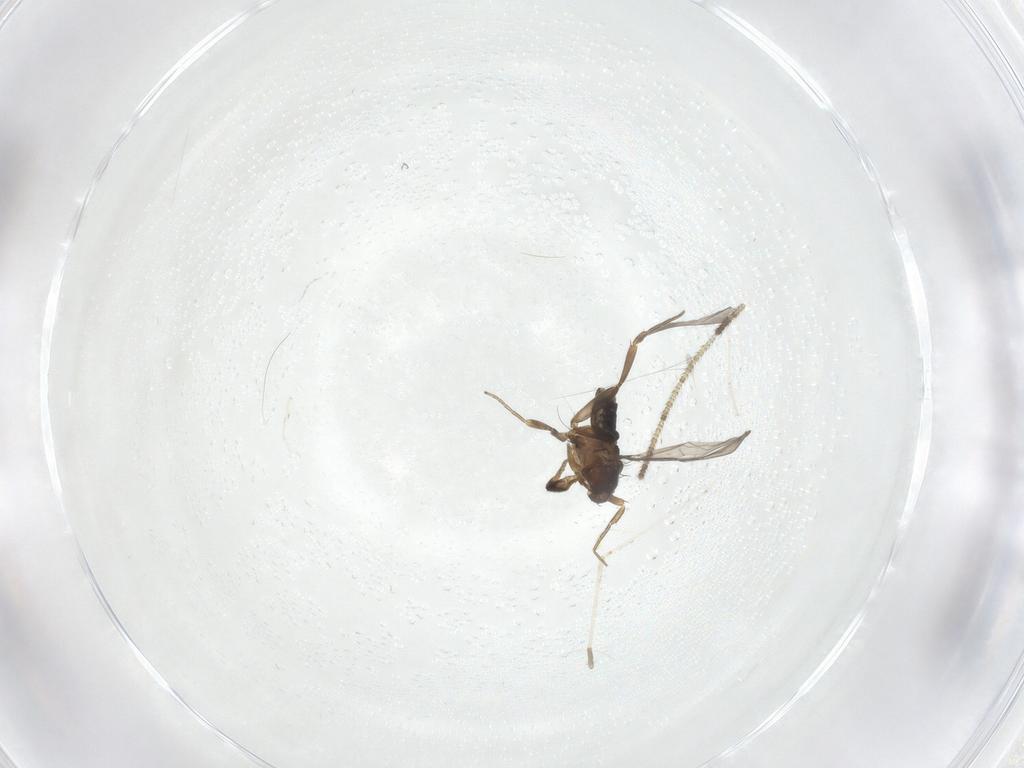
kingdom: Animalia
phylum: Arthropoda
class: Insecta
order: Diptera
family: Phoridae
